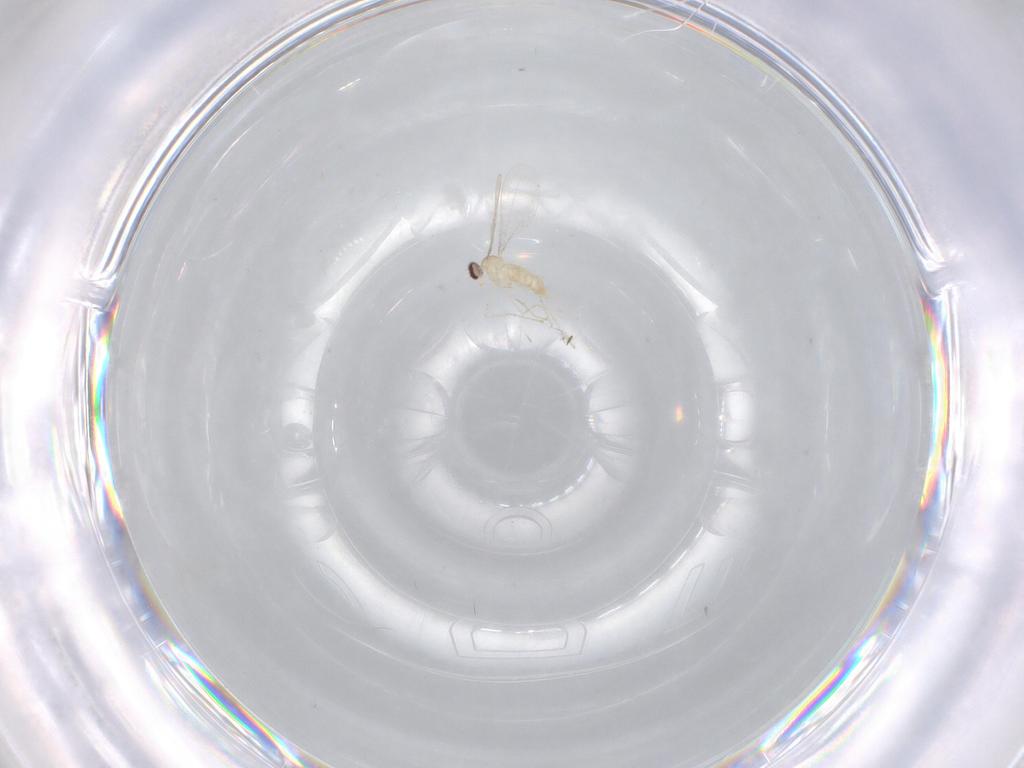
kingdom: Animalia
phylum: Arthropoda
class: Insecta
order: Diptera
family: Cecidomyiidae
